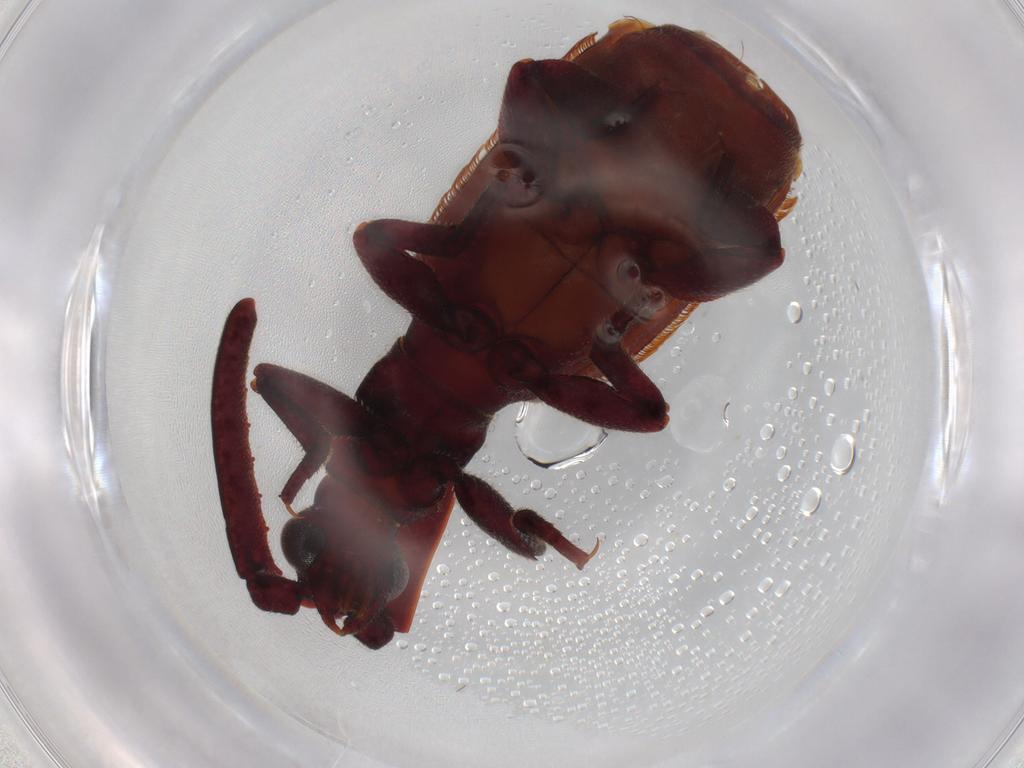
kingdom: Animalia
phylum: Arthropoda
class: Insecta
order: Coleoptera
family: Carabidae
